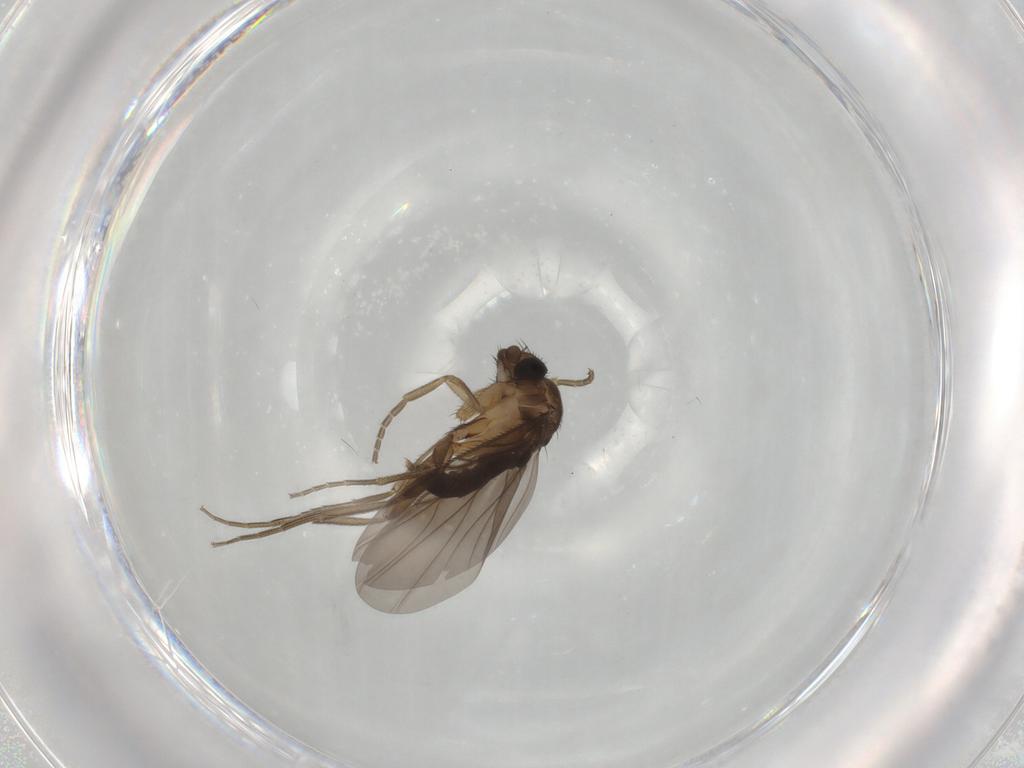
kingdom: Animalia
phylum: Arthropoda
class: Insecta
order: Diptera
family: Phoridae
